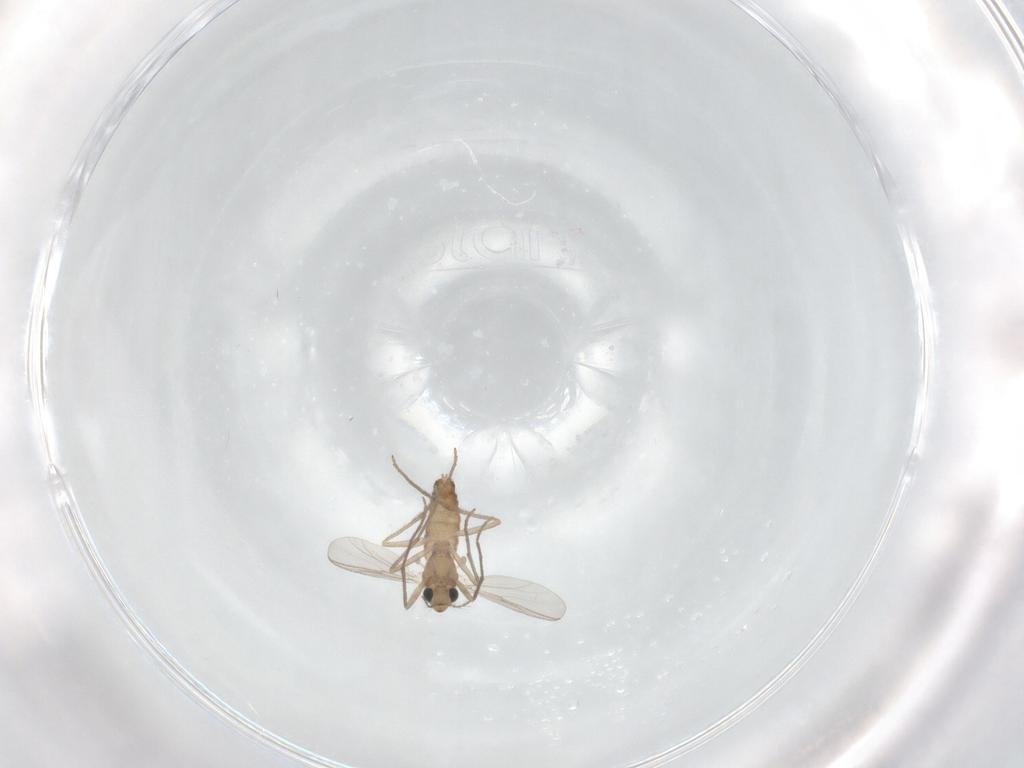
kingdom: Animalia
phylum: Arthropoda
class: Insecta
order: Diptera
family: Chironomidae
